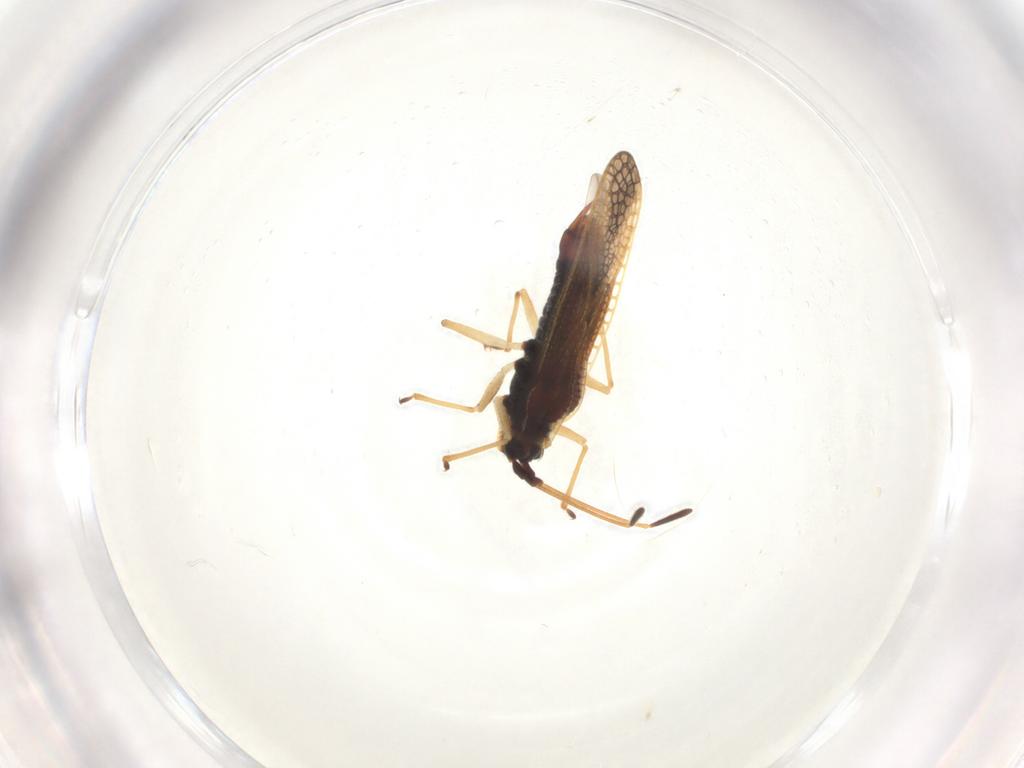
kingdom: Animalia
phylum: Arthropoda
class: Insecta
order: Hemiptera
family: Tingidae
